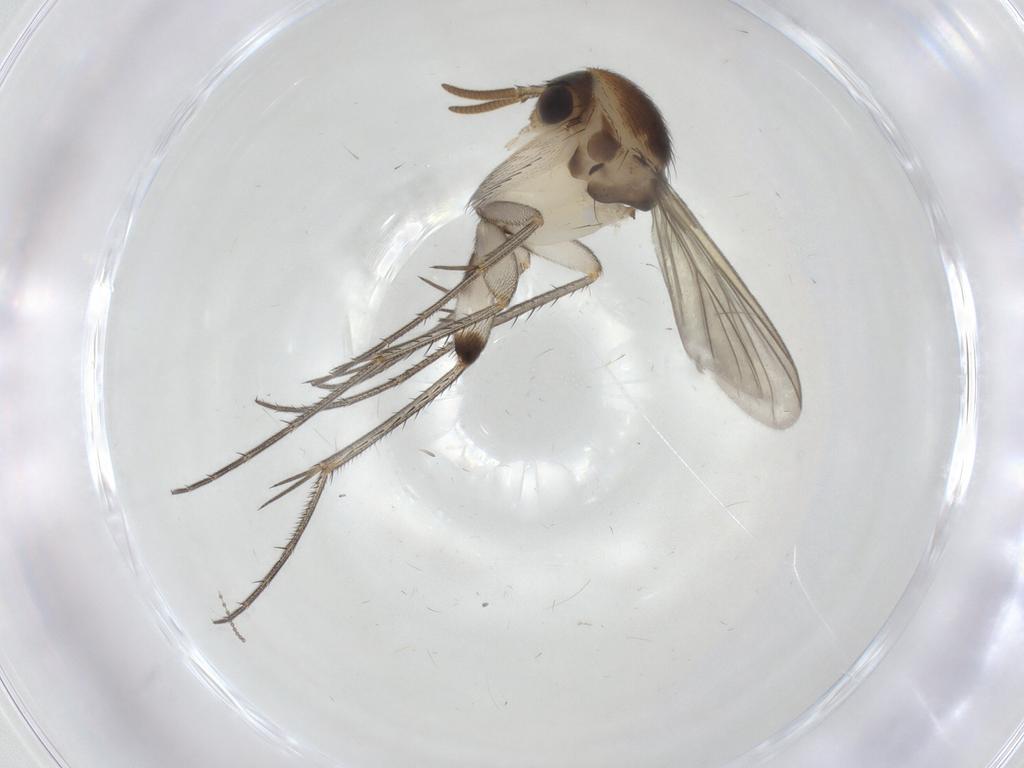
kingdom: Animalia
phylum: Arthropoda
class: Insecta
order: Diptera
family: Mycetophilidae
